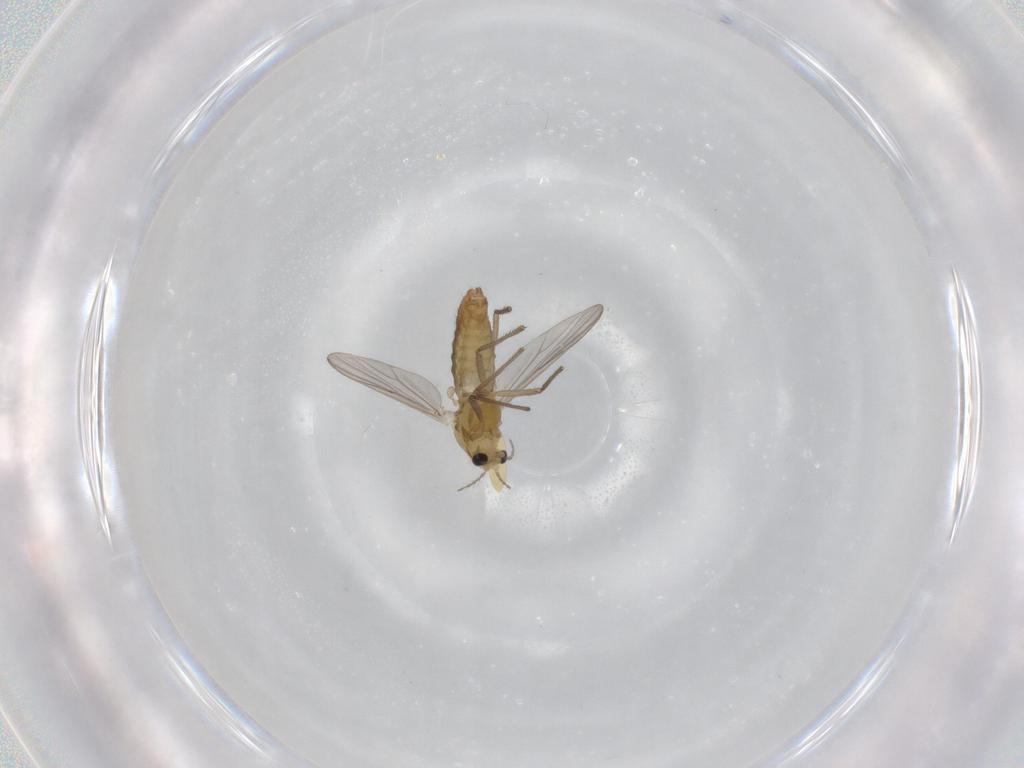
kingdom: Animalia
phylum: Arthropoda
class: Insecta
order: Diptera
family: Chironomidae
